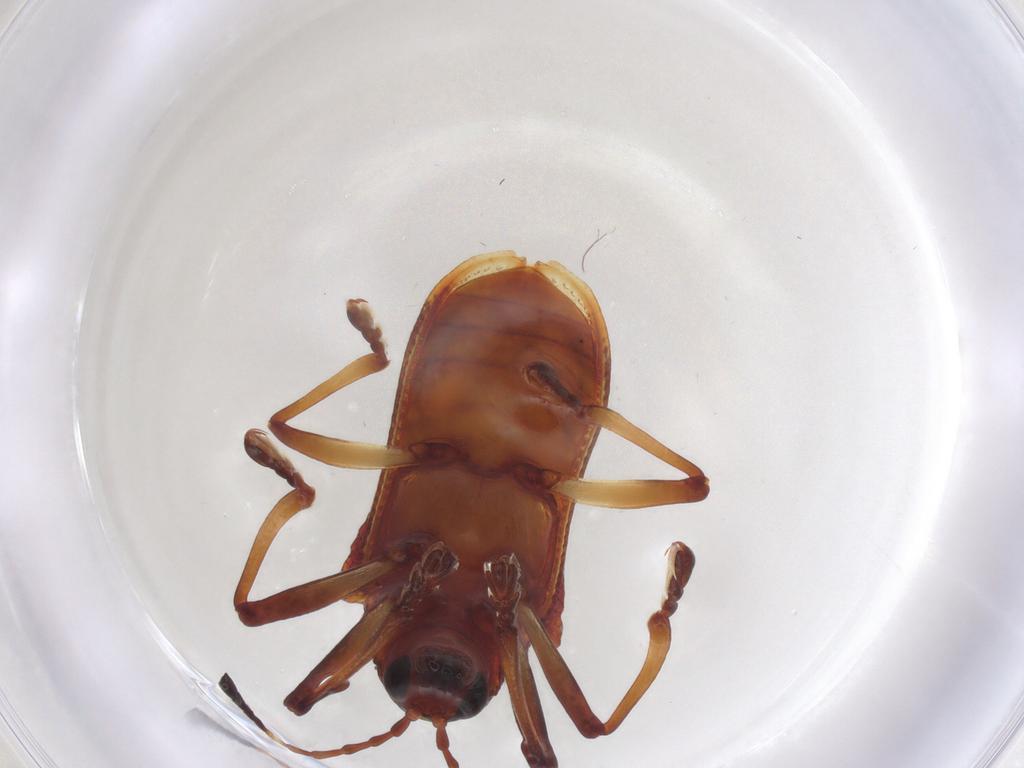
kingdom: Animalia
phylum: Arthropoda
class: Insecta
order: Coleoptera
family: Chrysomelidae
